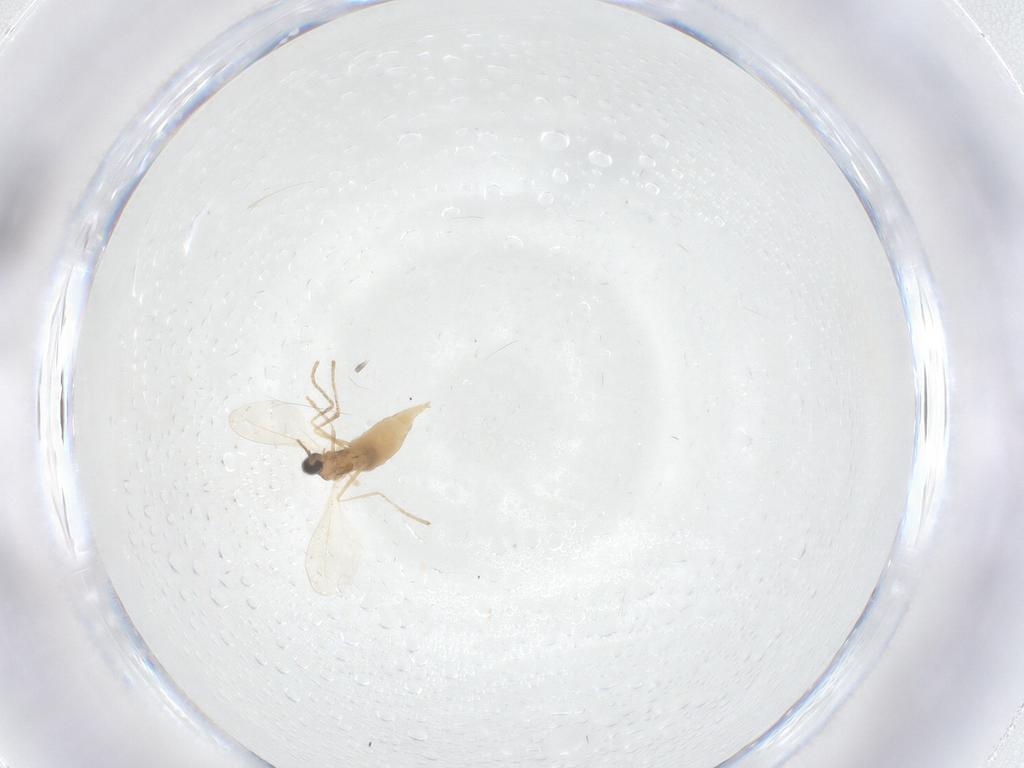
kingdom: Animalia
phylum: Arthropoda
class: Insecta
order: Diptera
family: Cecidomyiidae
